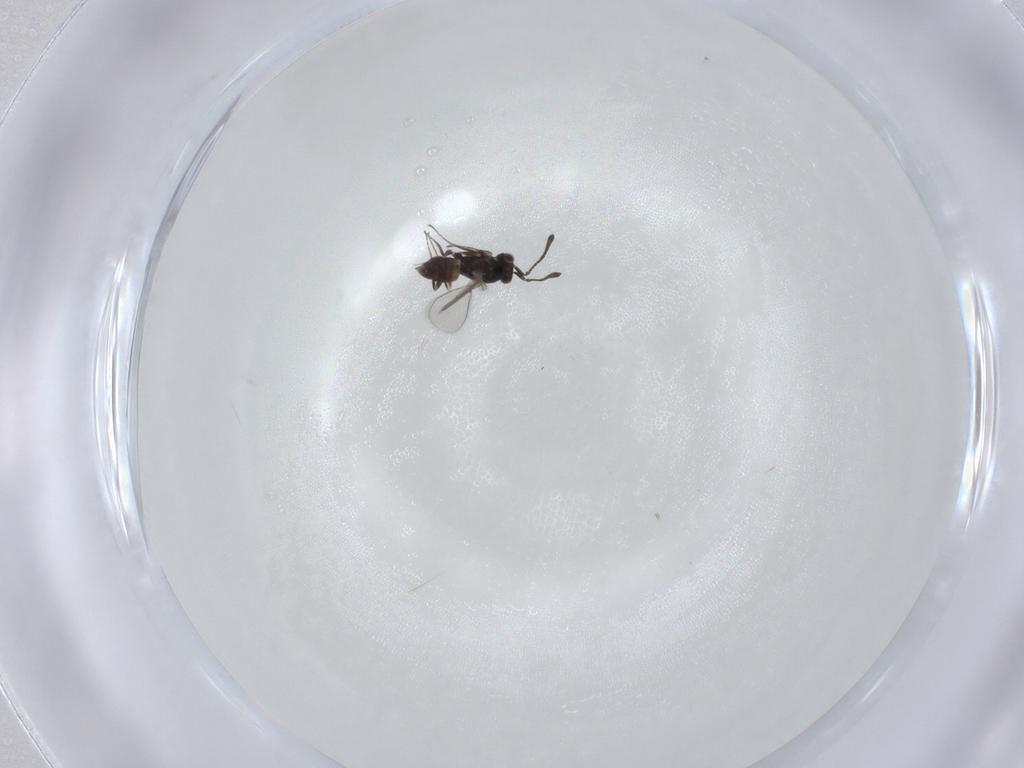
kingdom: Animalia
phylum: Arthropoda
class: Insecta
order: Hymenoptera
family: Mymaridae
